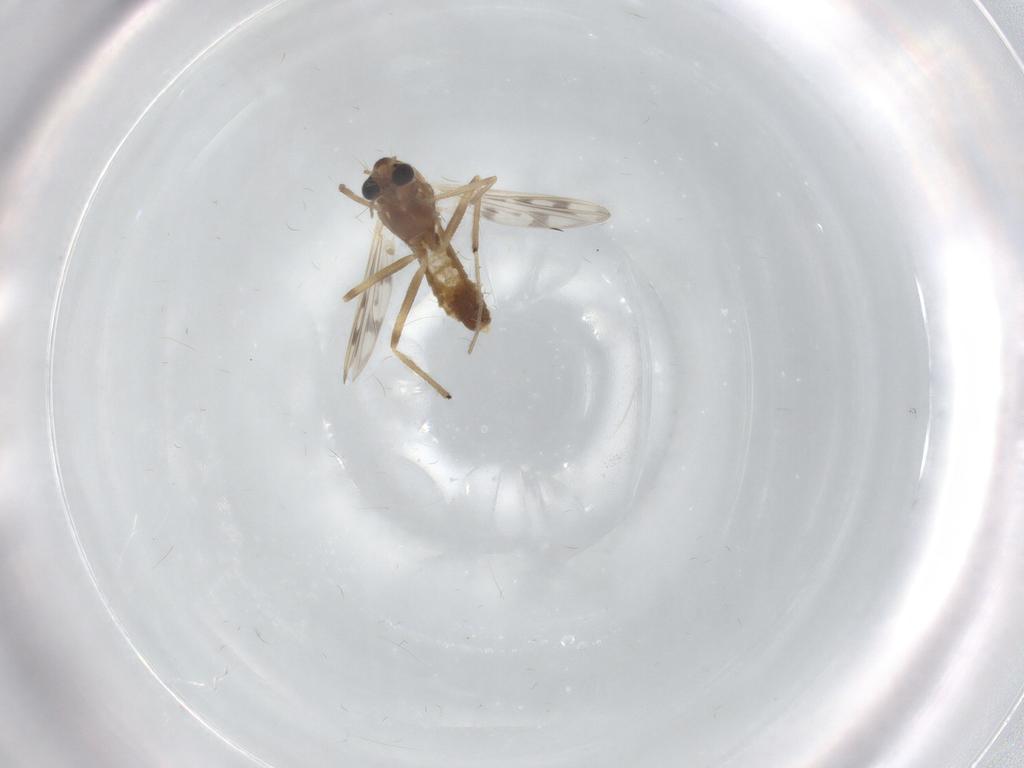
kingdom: Animalia
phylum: Arthropoda
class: Insecta
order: Diptera
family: Chironomidae
